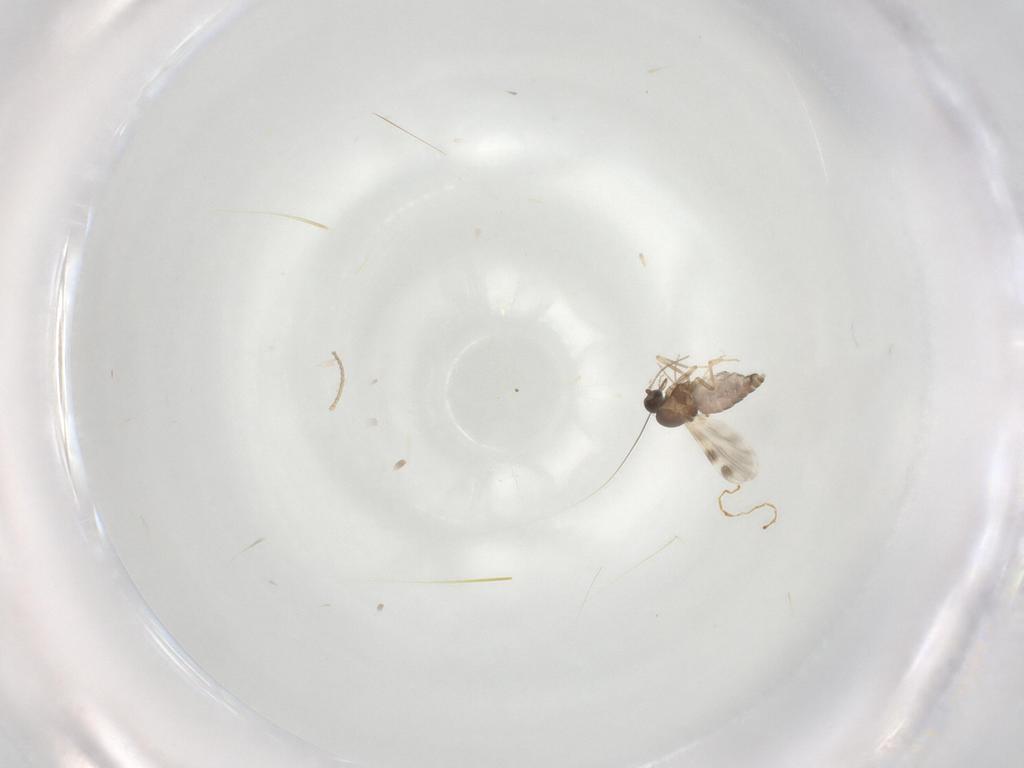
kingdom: Animalia
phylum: Arthropoda
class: Insecta
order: Diptera
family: Ceratopogonidae
